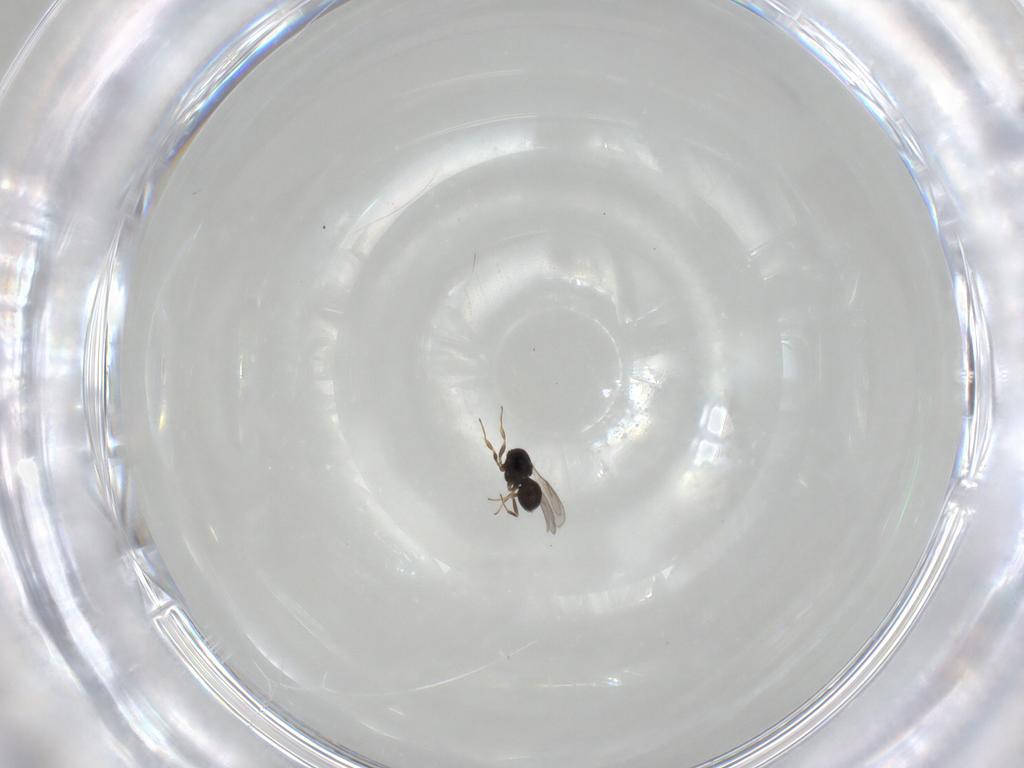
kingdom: Animalia
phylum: Arthropoda
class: Insecta
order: Hymenoptera
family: Scelionidae
